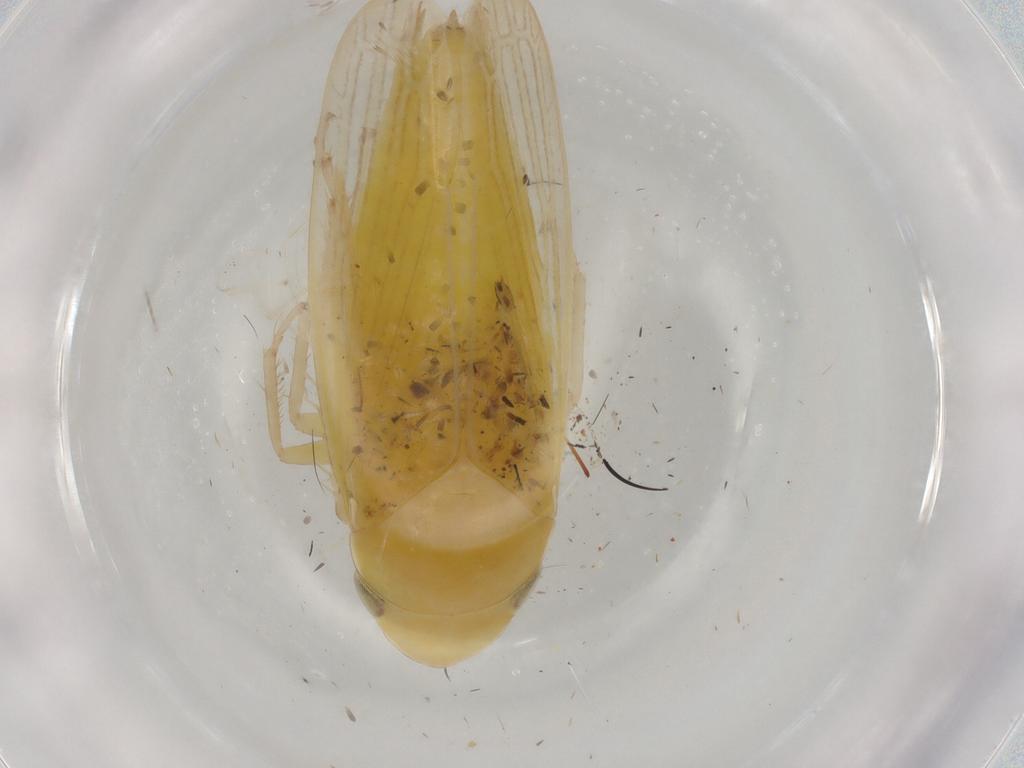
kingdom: Animalia
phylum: Arthropoda
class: Insecta
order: Hemiptera
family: Cicadellidae
